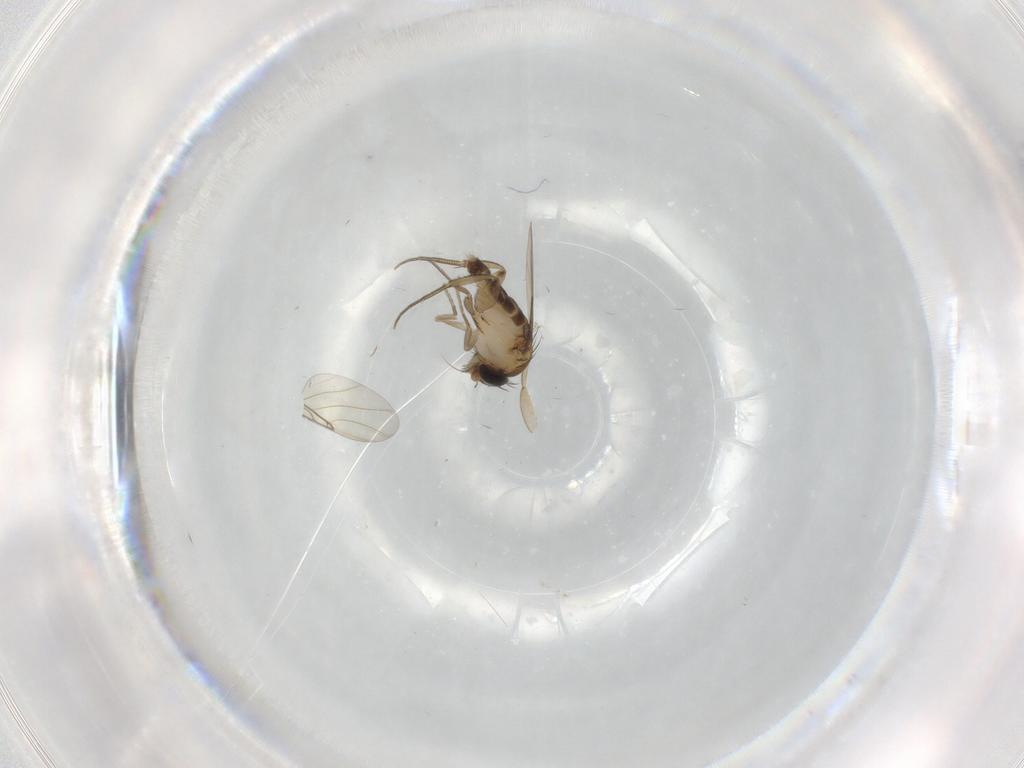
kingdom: Animalia
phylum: Arthropoda
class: Insecta
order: Diptera
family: Phoridae
